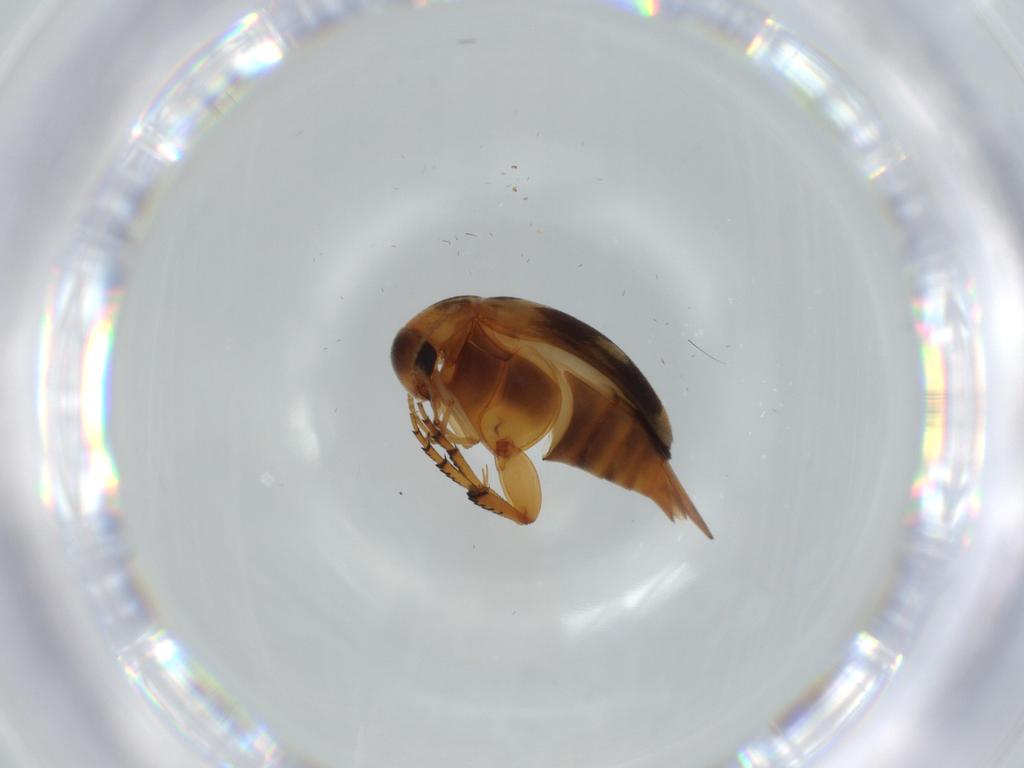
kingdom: Animalia
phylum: Arthropoda
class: Insecta
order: Coleoptera
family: Mordellidae
